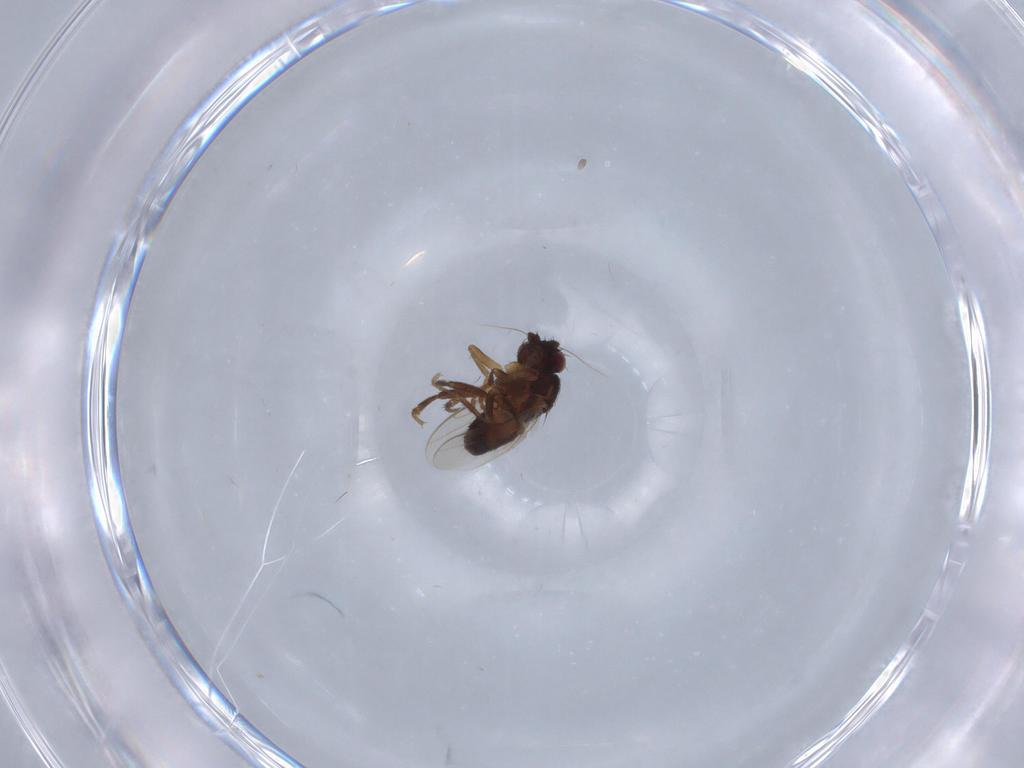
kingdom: Animalia
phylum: Arthropoda
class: Insecta
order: Diptera
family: Sphaeroceridae
